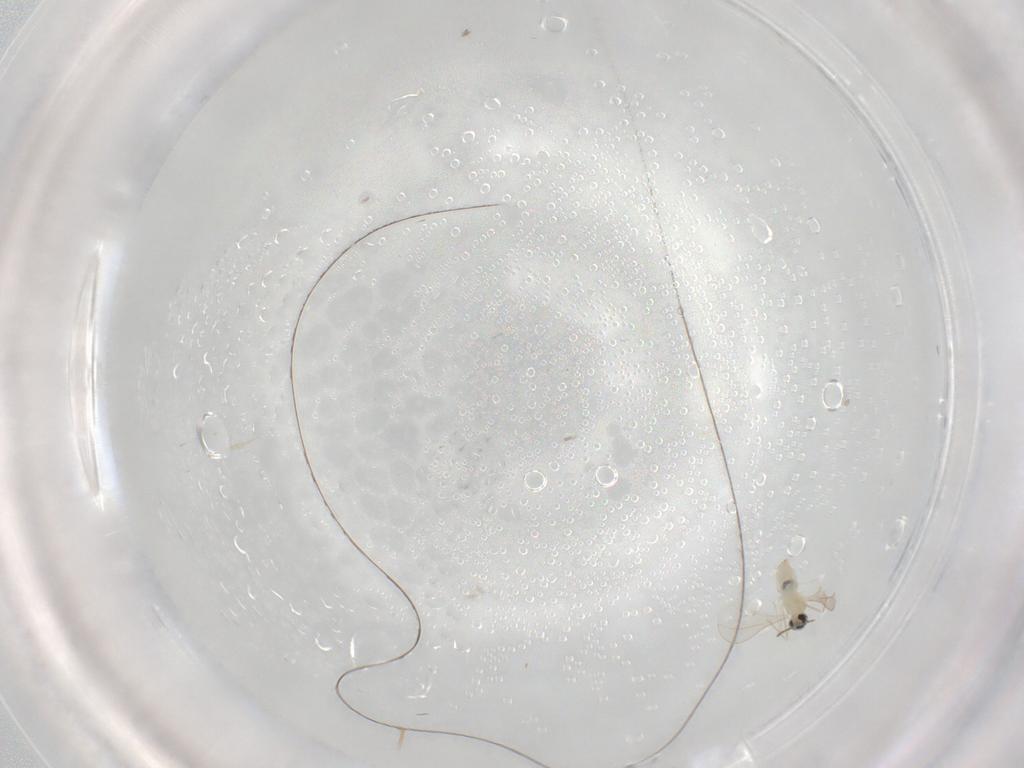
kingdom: Animalia
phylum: Arthropoda
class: Insecta
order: Diptera
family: Cecidomyiidae
